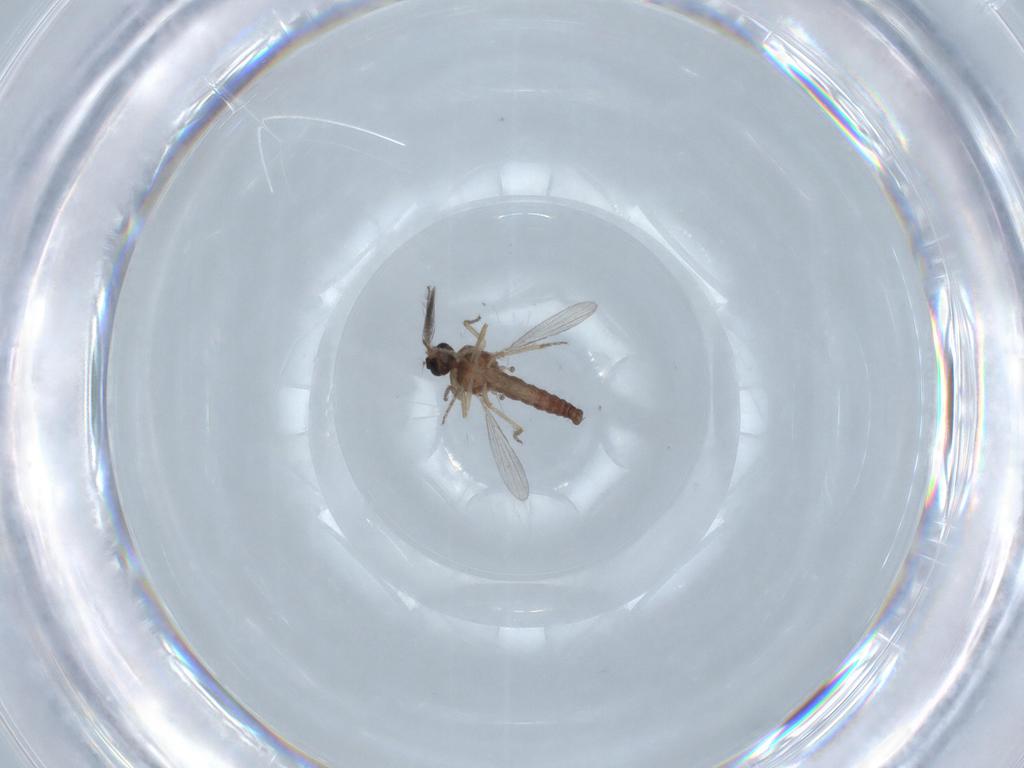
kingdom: Animalia
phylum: Arthropoda
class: Insecta
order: Diptera
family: Ceratopogonidae
